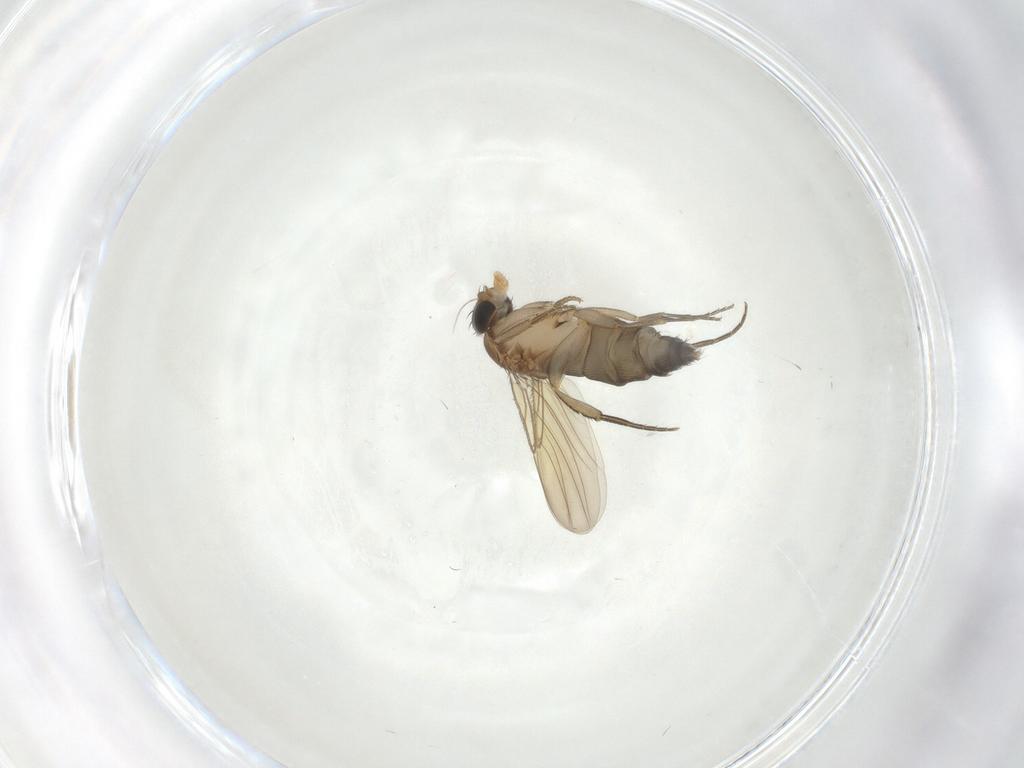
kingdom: Animalia
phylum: Arthropoda
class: Insecta
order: Diptera
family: Phoridae
